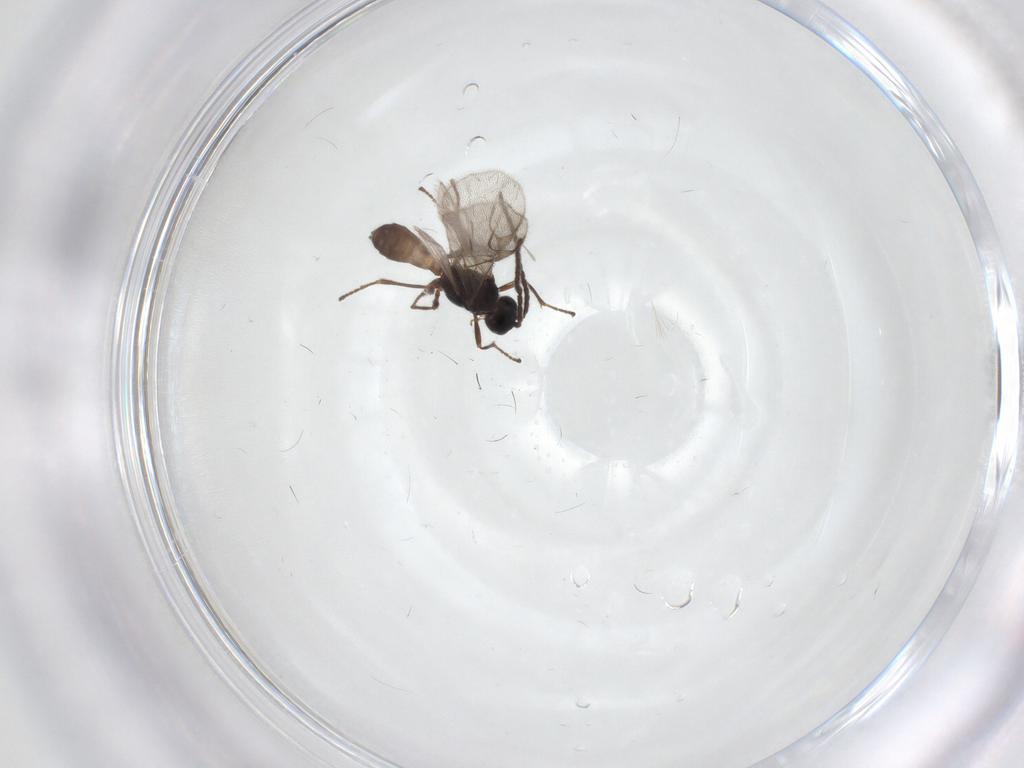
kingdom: Animalia
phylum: Arthropoda
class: Insecta
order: Hymenoptera
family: Braconidae
